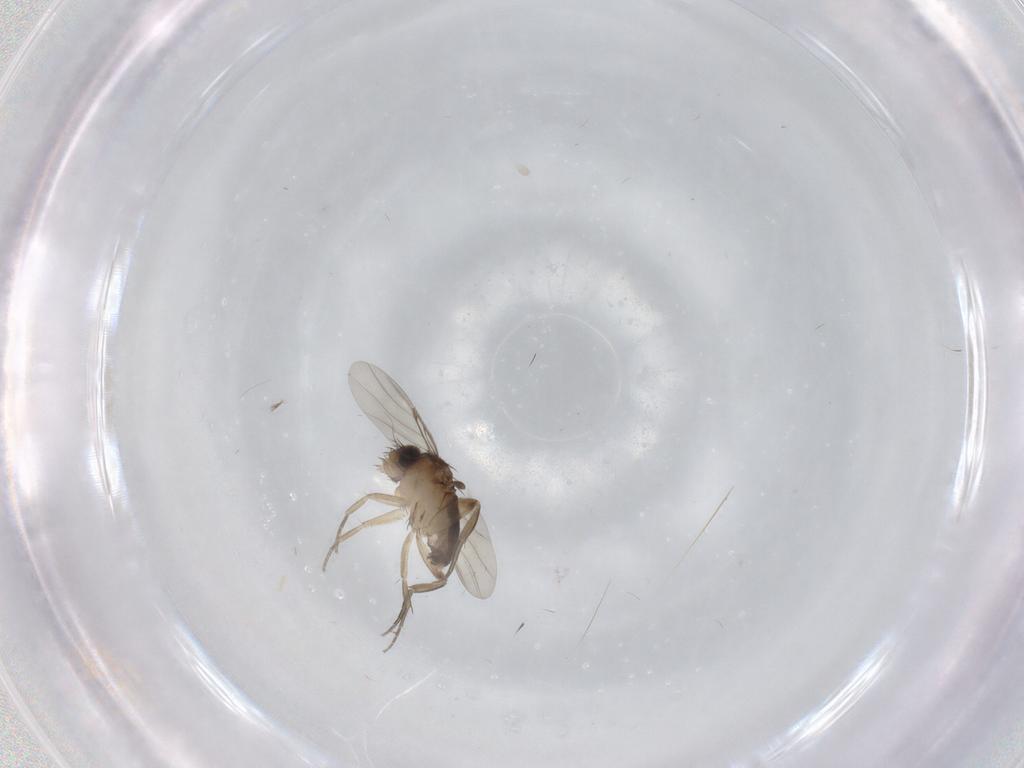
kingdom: Animalia
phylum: Arthropoda
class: Insecta
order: Diptera
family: Phoridae
